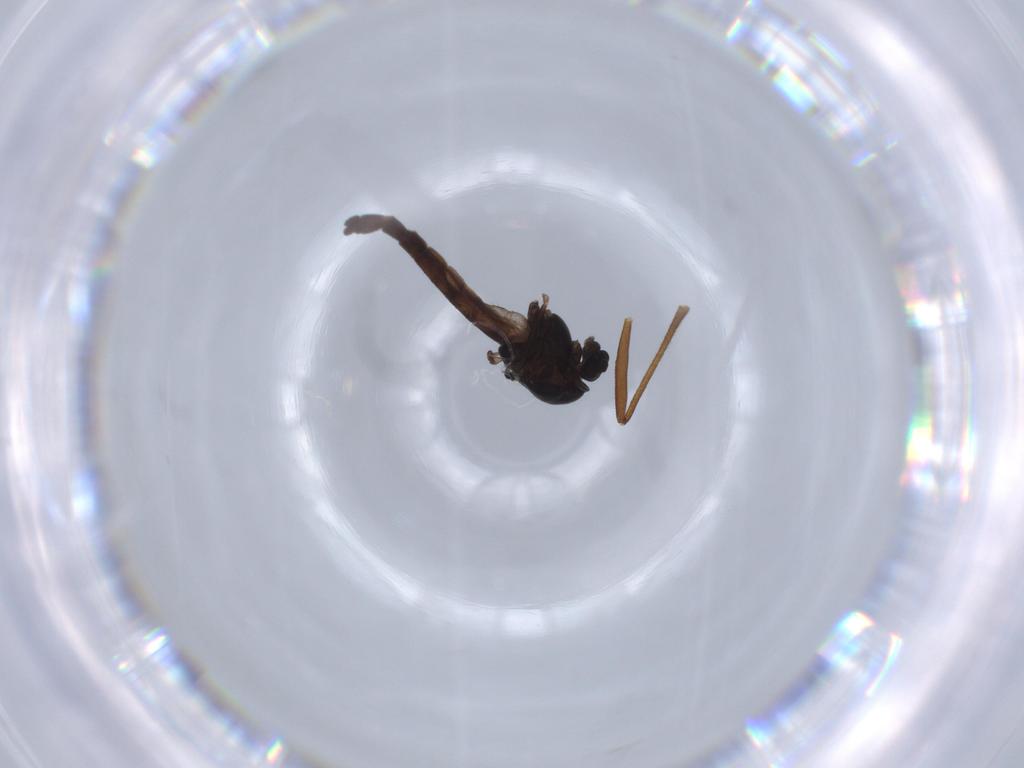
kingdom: Animalia
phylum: Arthropoda
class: Insecta
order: Diptera
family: Chironomidae
